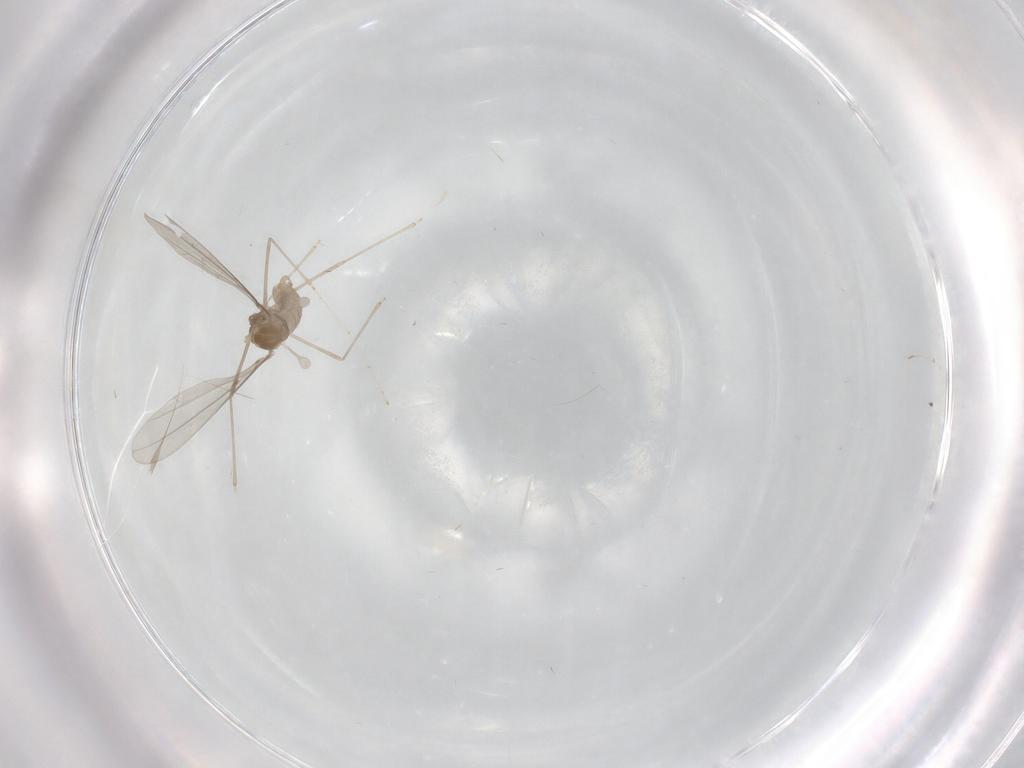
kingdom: Animalia
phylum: Arthropoda
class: Insecta
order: Diptera
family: Cecidomyiidae
